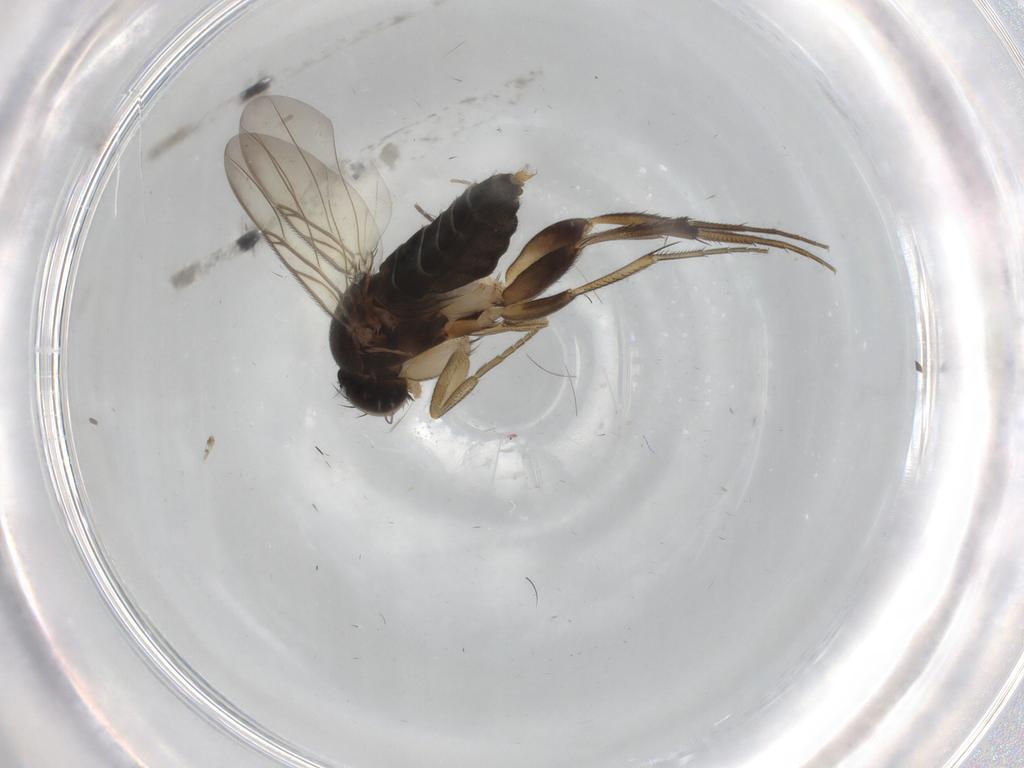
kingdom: Animalia
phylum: Arthropoda
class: Insecta
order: Diptera
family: Phoridae
